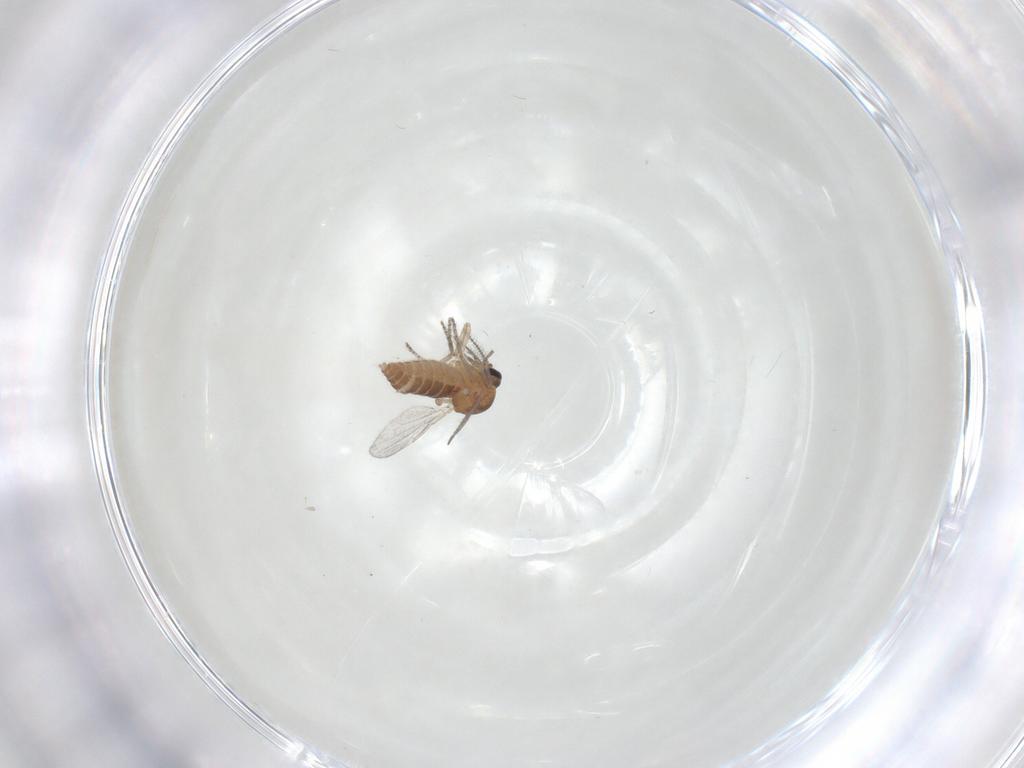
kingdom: Animalia
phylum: Arthropoda
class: Insecta
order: Diptera
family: Ceratopogonidae
